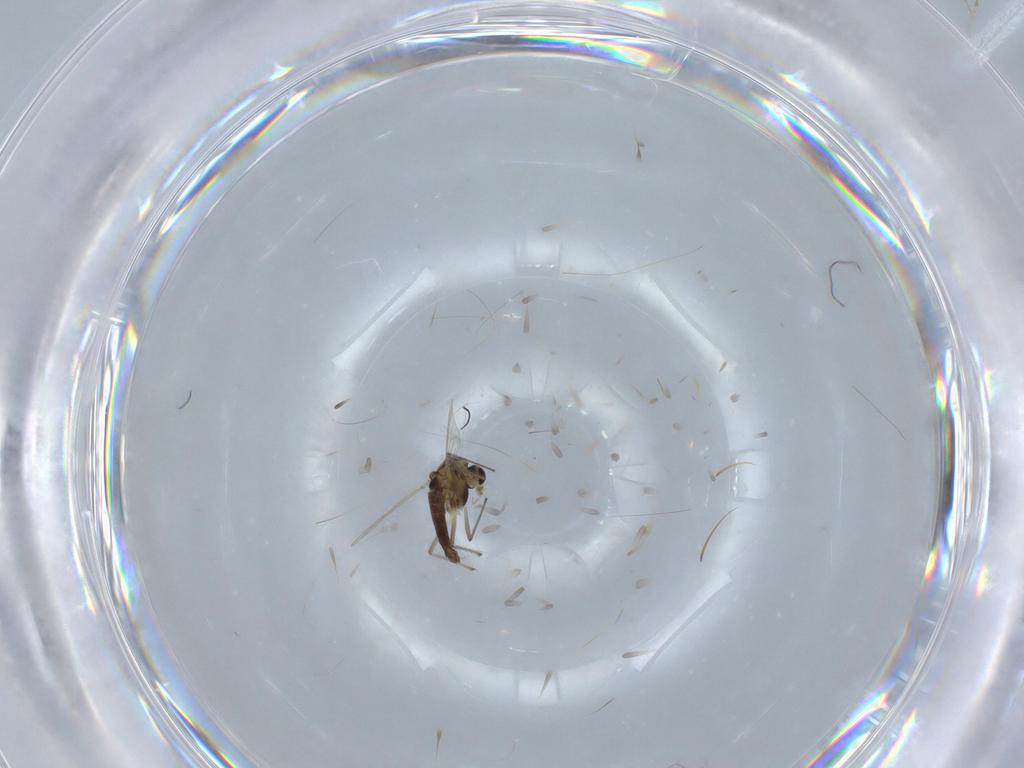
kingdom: Animalia
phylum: Arthropoda
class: Insecta
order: Diptera
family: Chironomidae
